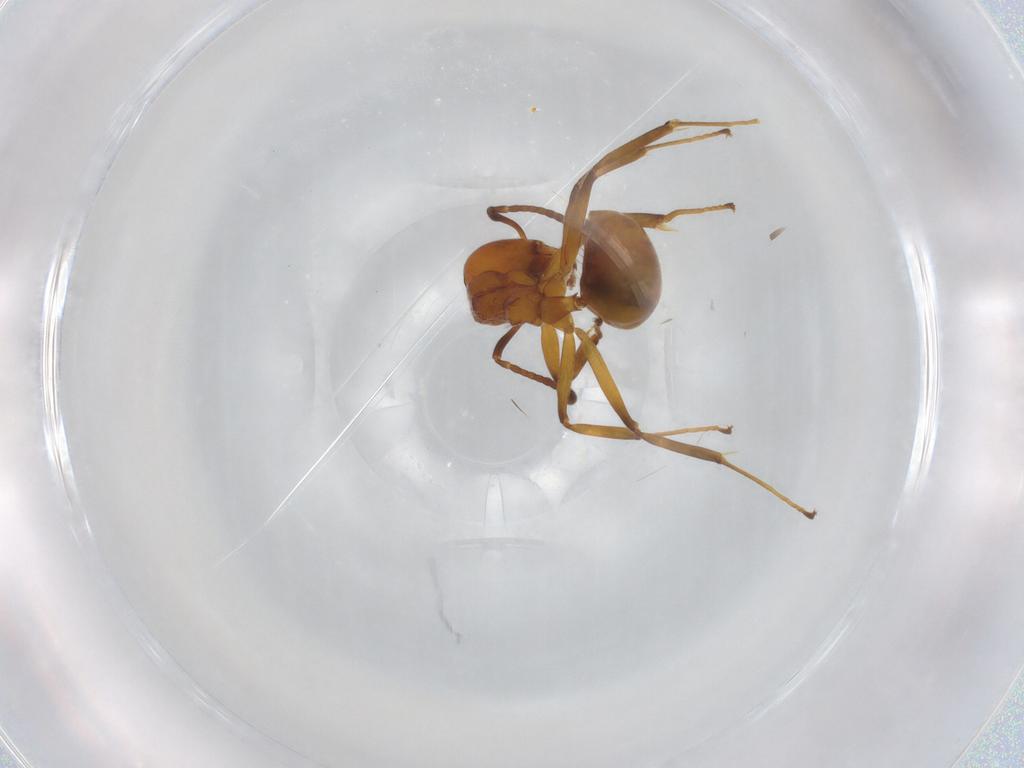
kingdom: Animalia
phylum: Arthropoda
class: Insecta
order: Hymenoptera
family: Formicidae
